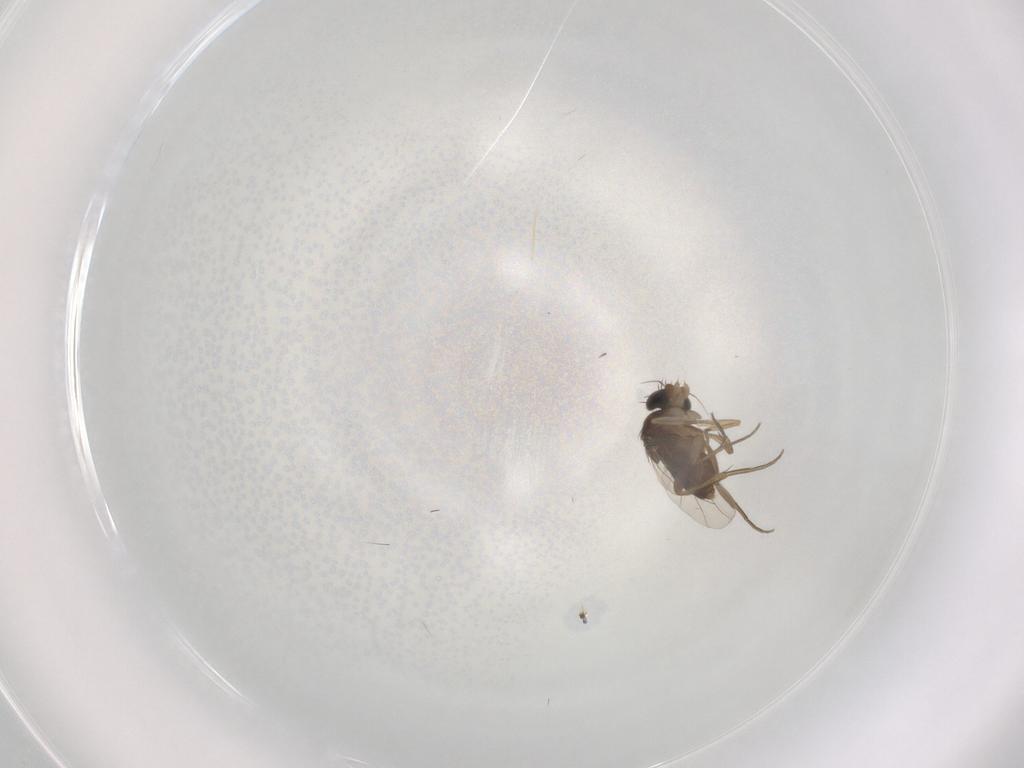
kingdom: Animalia
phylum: Arthropoda
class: Insecta
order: Diptera
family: Phoridae
